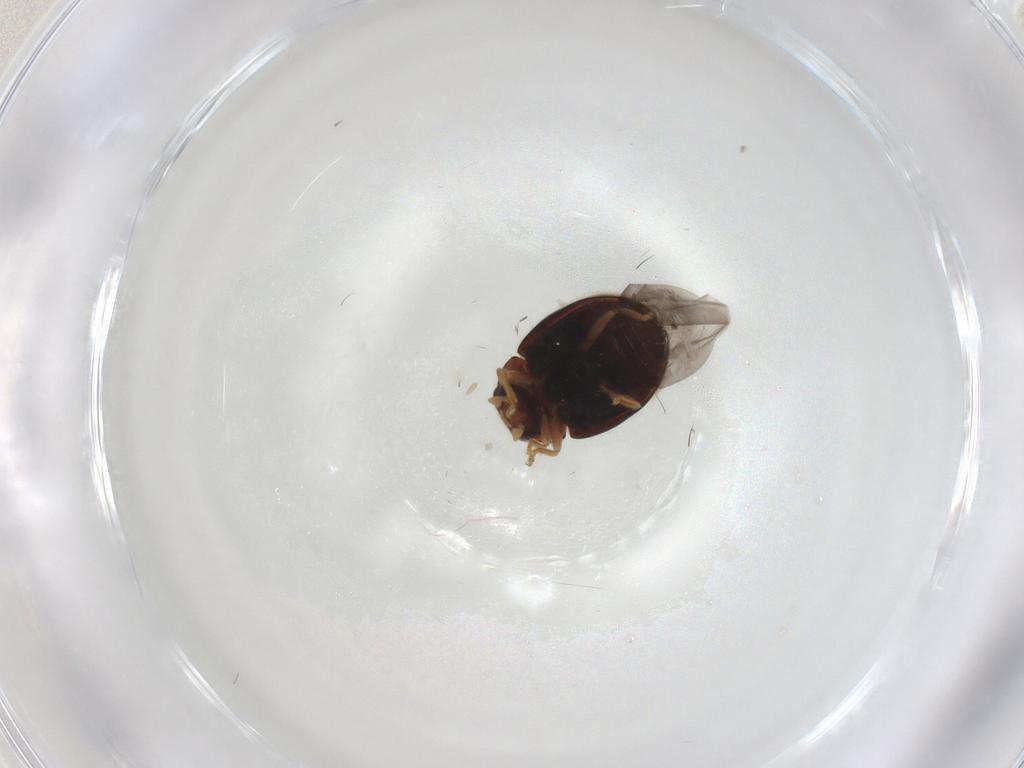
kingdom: Animalia
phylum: Arthropoda
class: Insecta
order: Coleoptera
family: Coccinellidae
